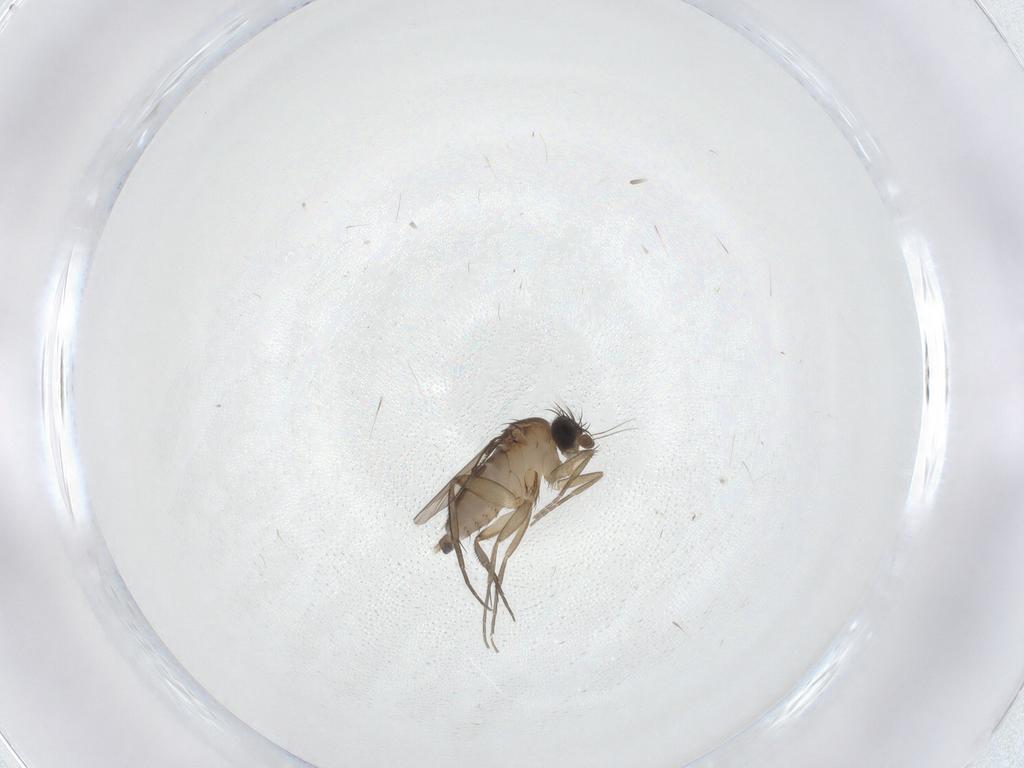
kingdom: Animalia
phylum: Arthropoda
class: Insecta
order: Diptera
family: Phoridae
